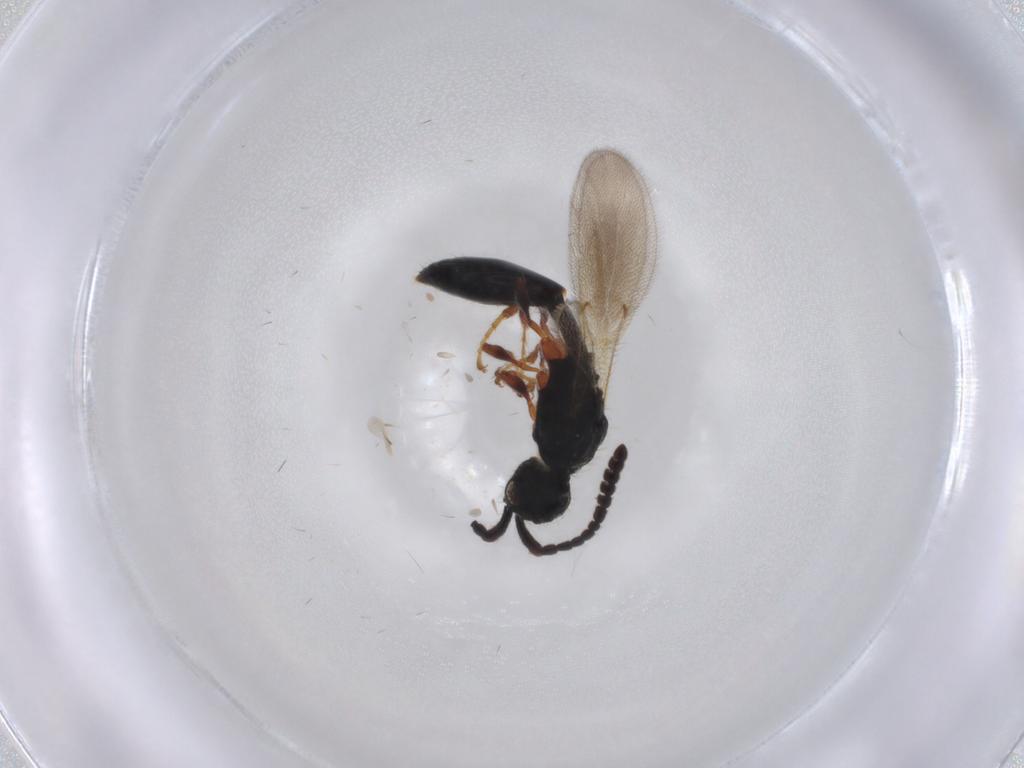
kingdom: Animalia
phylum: Arthropoda
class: Insecta
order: Hymenoptera
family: Diapriidae
